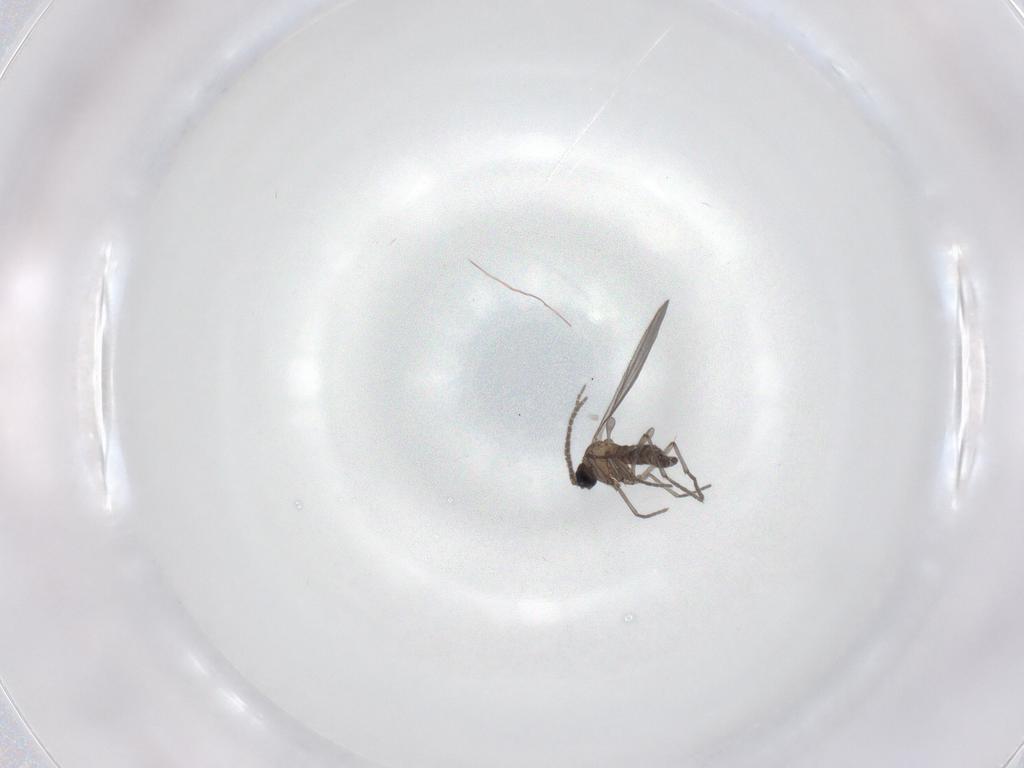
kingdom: Animalia
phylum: Arthropoda
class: Insecta
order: Diptera
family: Sciaridae
